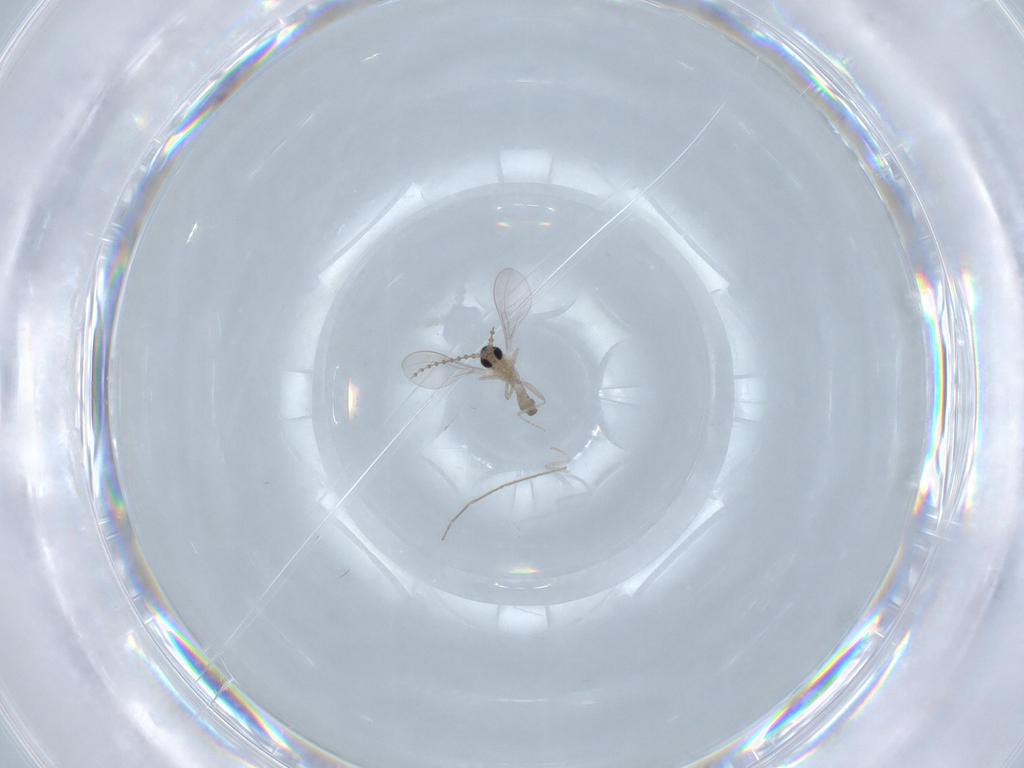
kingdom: Animalia
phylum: Arthropoda
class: Insecta
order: Diptera
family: Chironomidae
